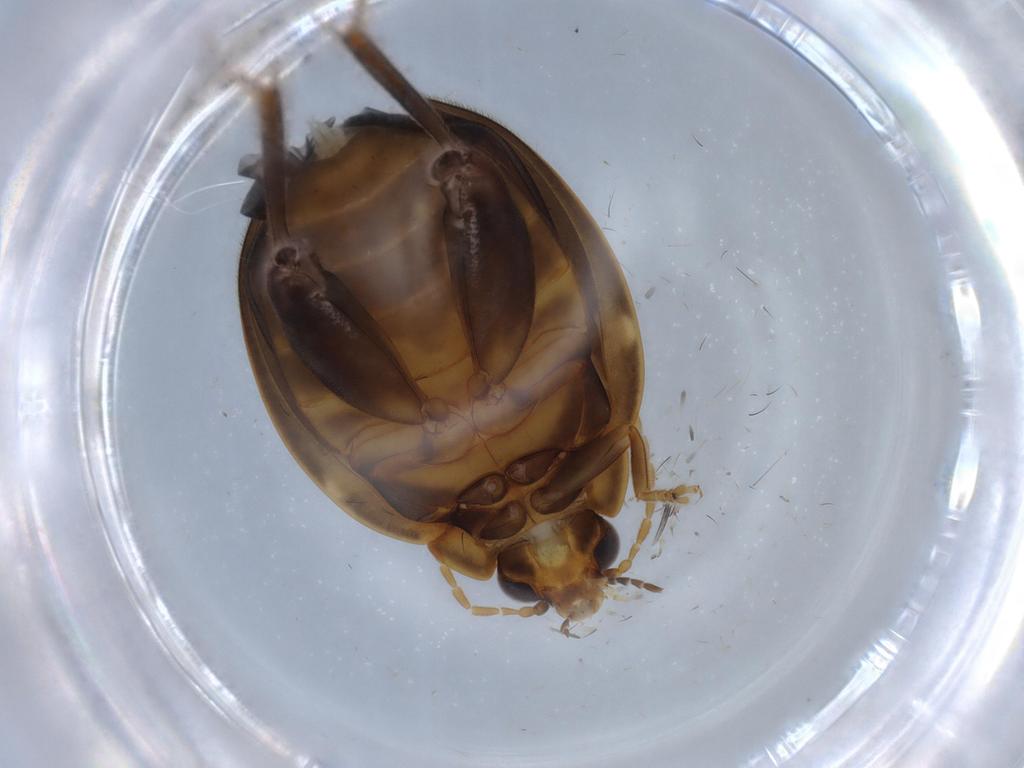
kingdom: Animalia
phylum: Arthropoda
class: Insecta
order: Coleoptera
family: Scirtidae
